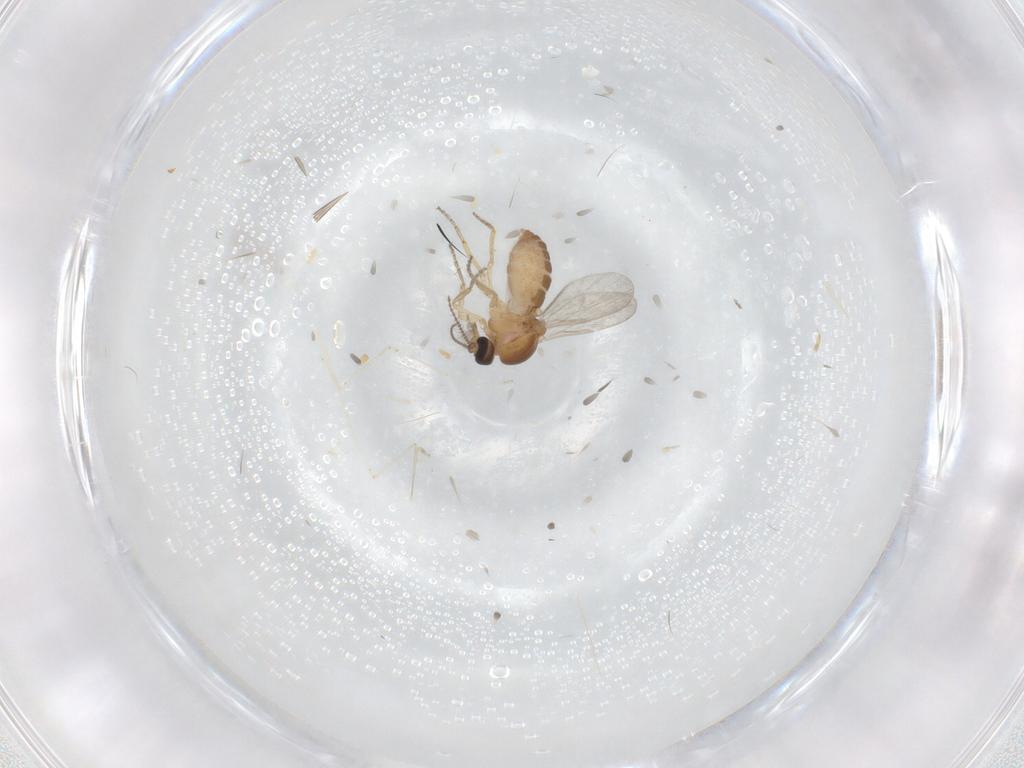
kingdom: Animalia
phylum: Arthropoda
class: Insecta
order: Diptera
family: Ceratopogonidae
